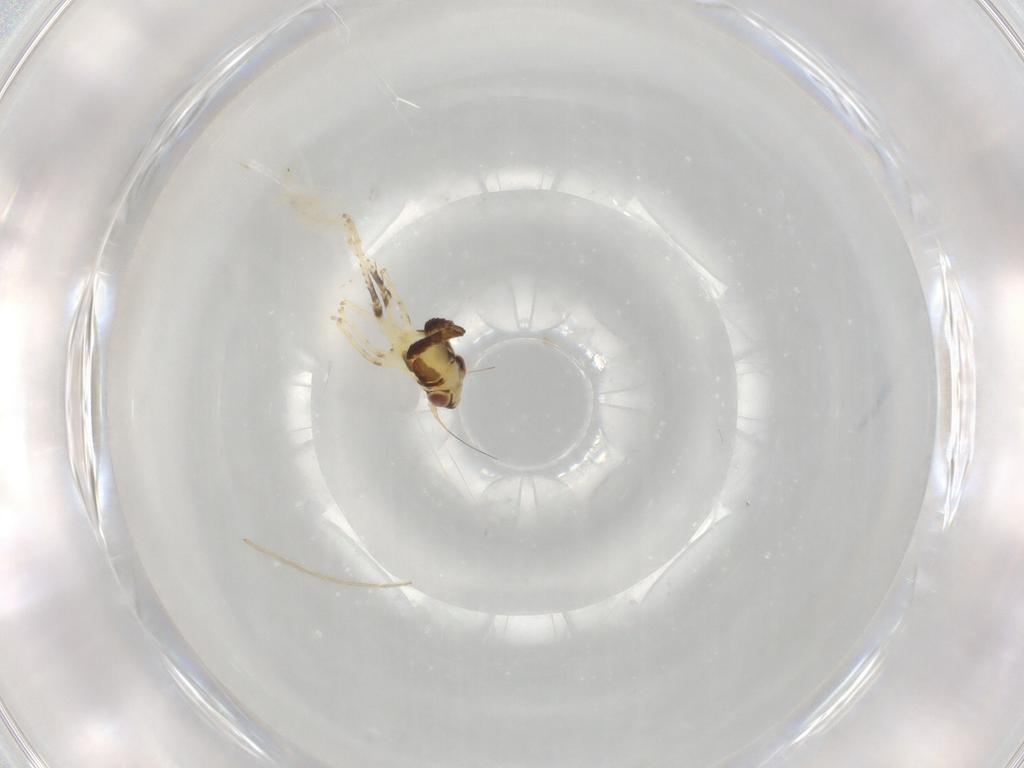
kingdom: Animalia
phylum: Arthropoda
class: Insecta
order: Hemiptera
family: Cicadellidae
